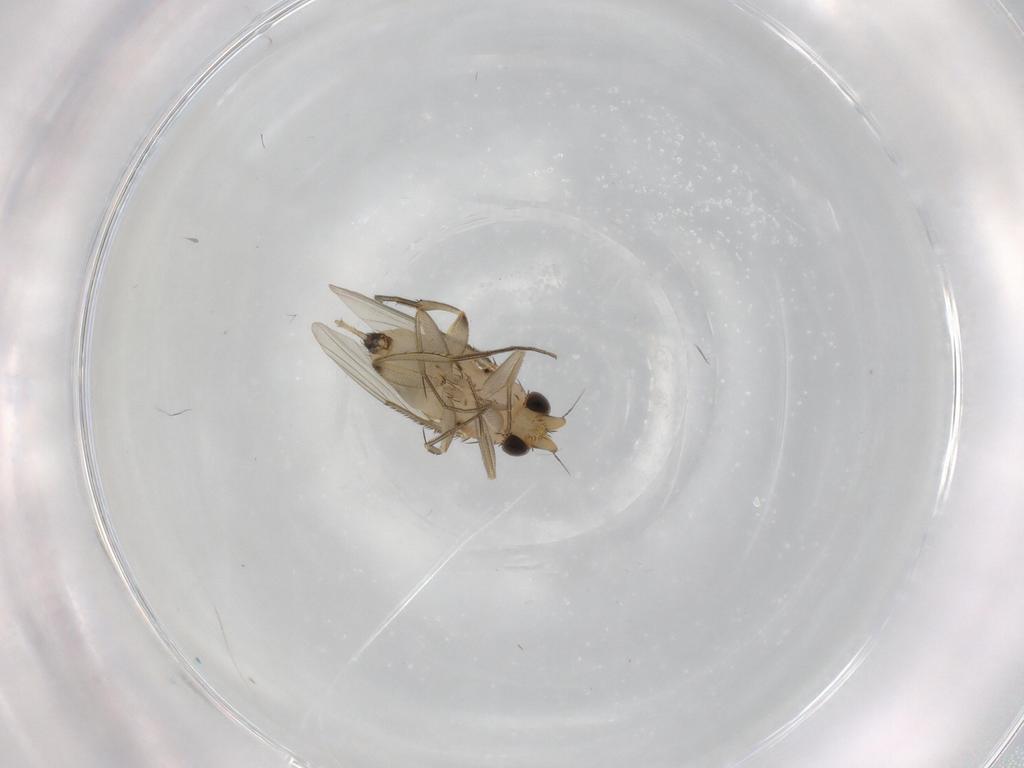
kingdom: Animalia
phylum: Arthropoda
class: Insecta
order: Diptera
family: Phoridae
